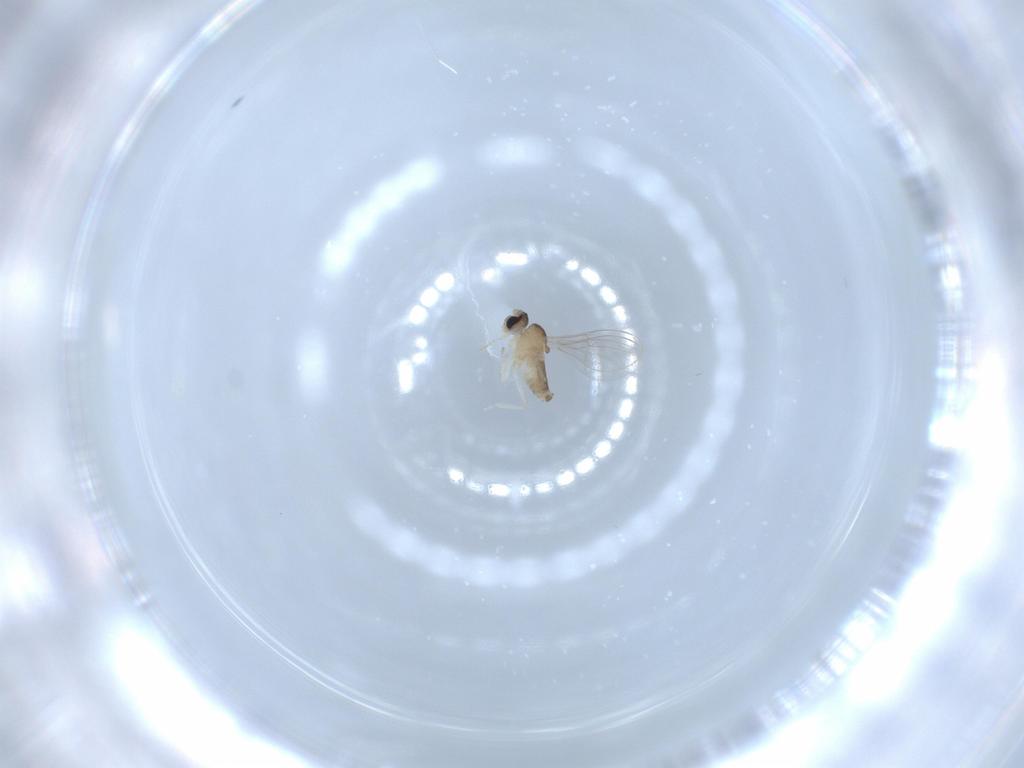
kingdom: Animalia
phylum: Arthropoda
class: Insecta
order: Diptera
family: Cecidomyiidae
